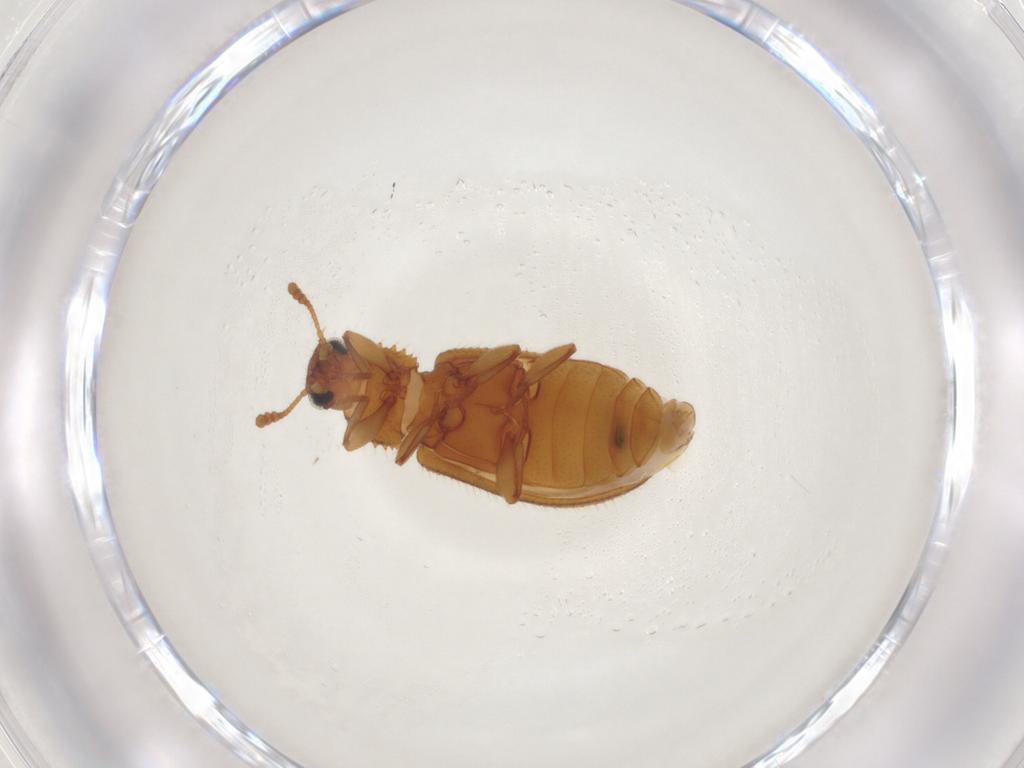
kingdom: Animalia
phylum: Arthropoda
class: Insecta
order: Coleoptera
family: Tenebrionidae
